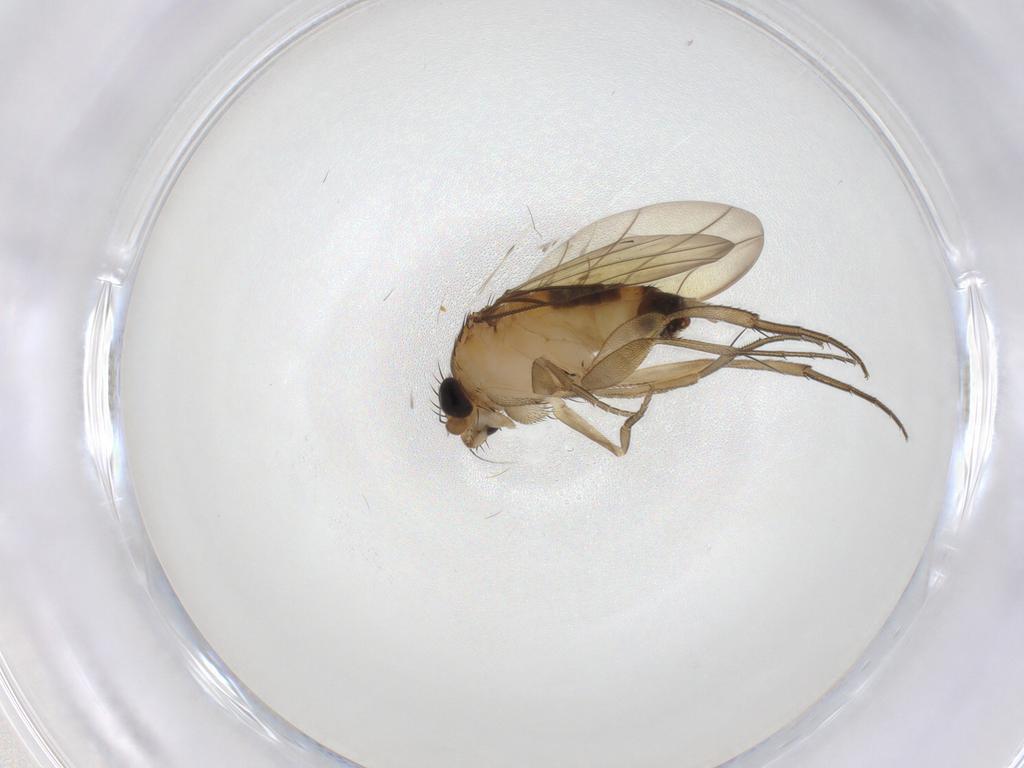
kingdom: Animalia
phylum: Arthropoda
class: Insecta
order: Diptera
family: Chironomidae
